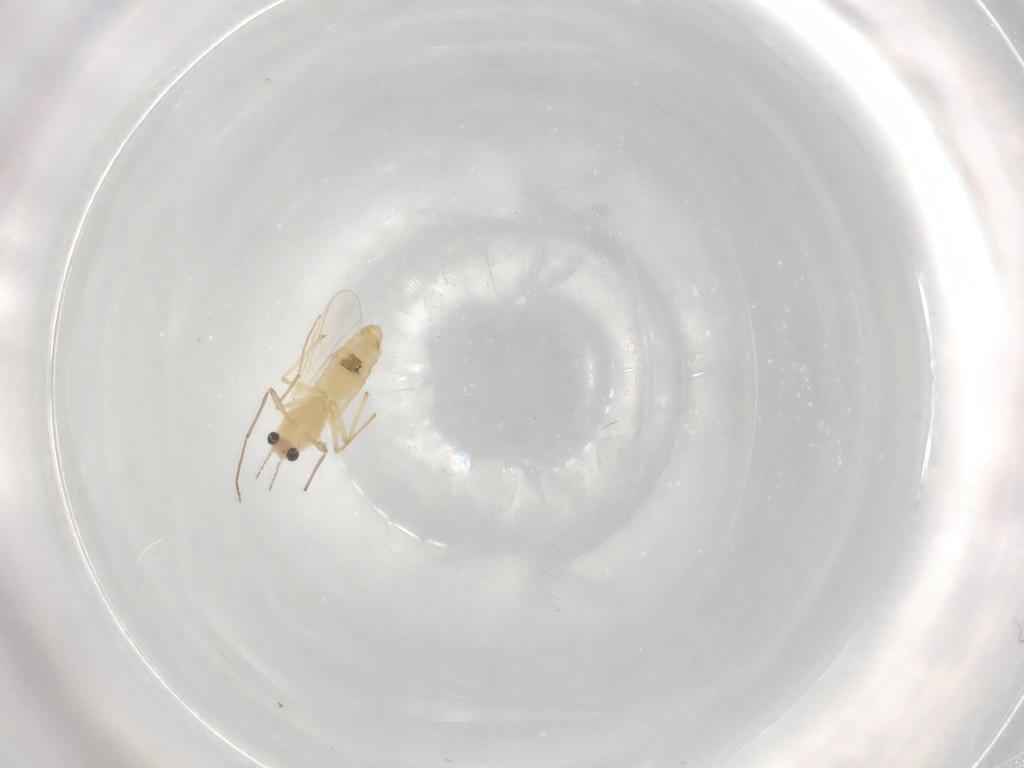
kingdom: Animalia
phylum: Arthropoda
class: Insecta
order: Diptera
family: Chironomidae
